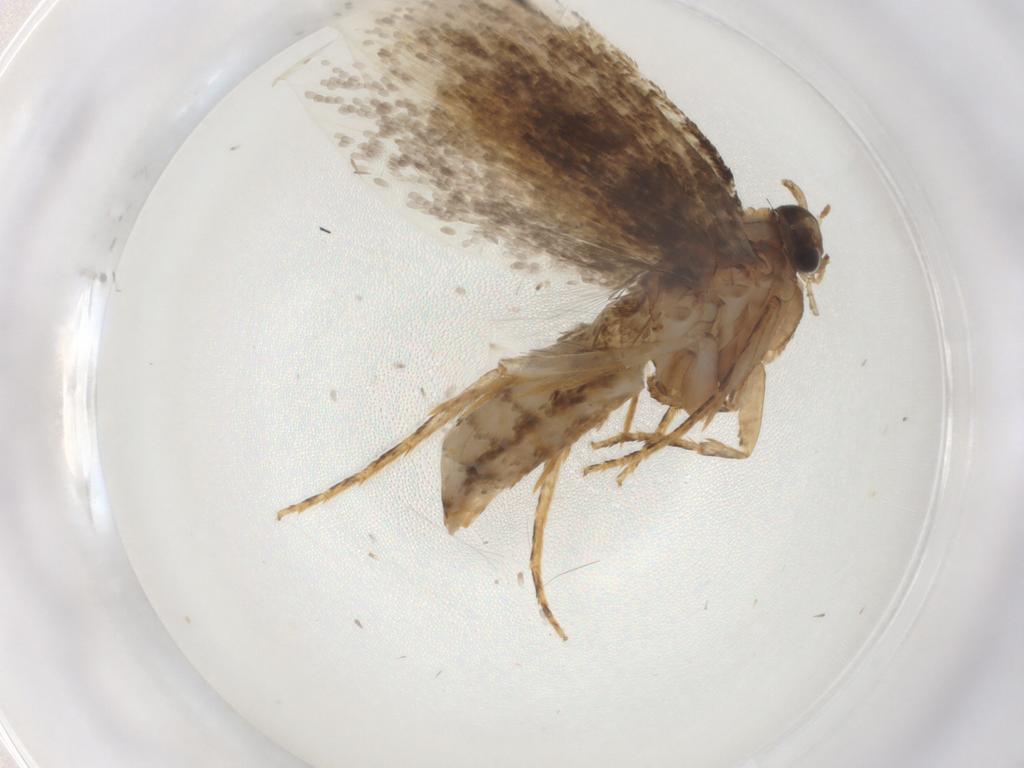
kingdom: Animalia
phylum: Arthropoda
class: Insecta
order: Lepidoptera
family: Crambidae
